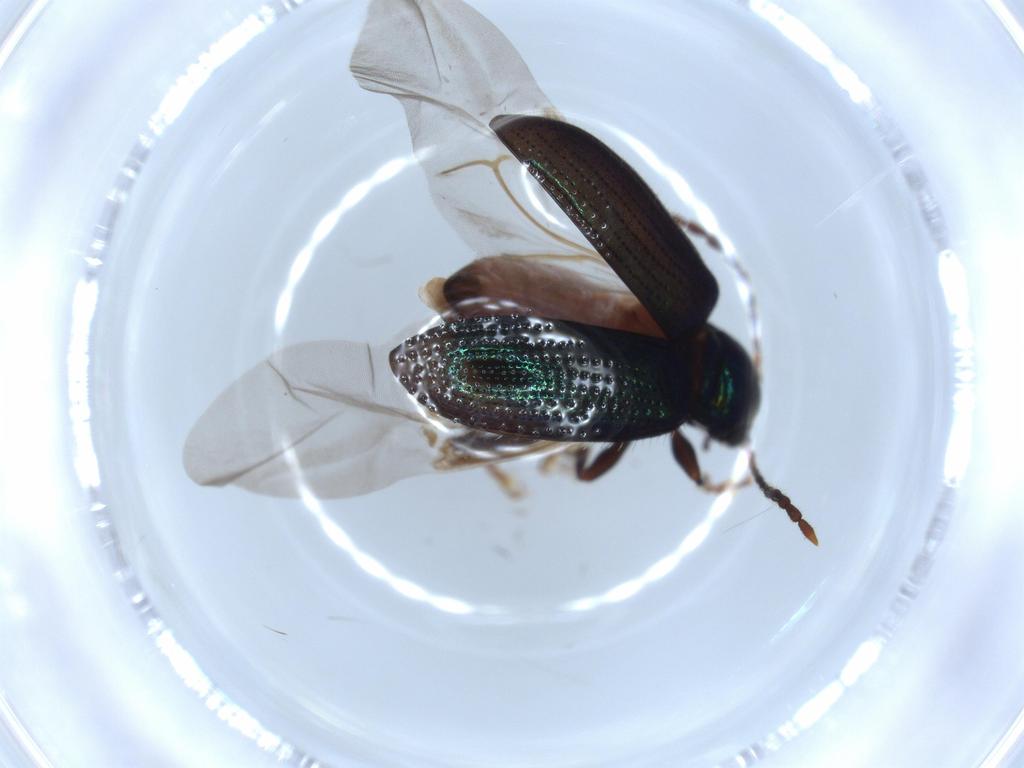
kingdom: Animalia
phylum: Arthropoda
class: Insecta
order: Coleoptera
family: Chrysomelidae
